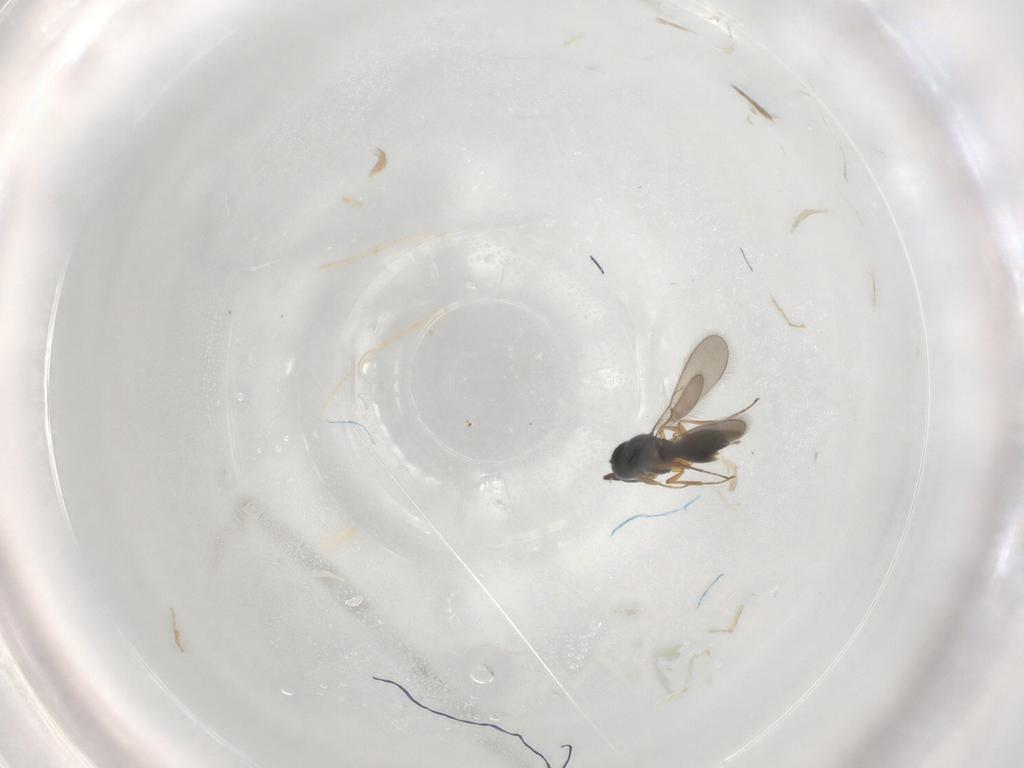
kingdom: Animalia
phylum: Arthropoda
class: Insecta
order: Hymenoptera
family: Scelionidae
